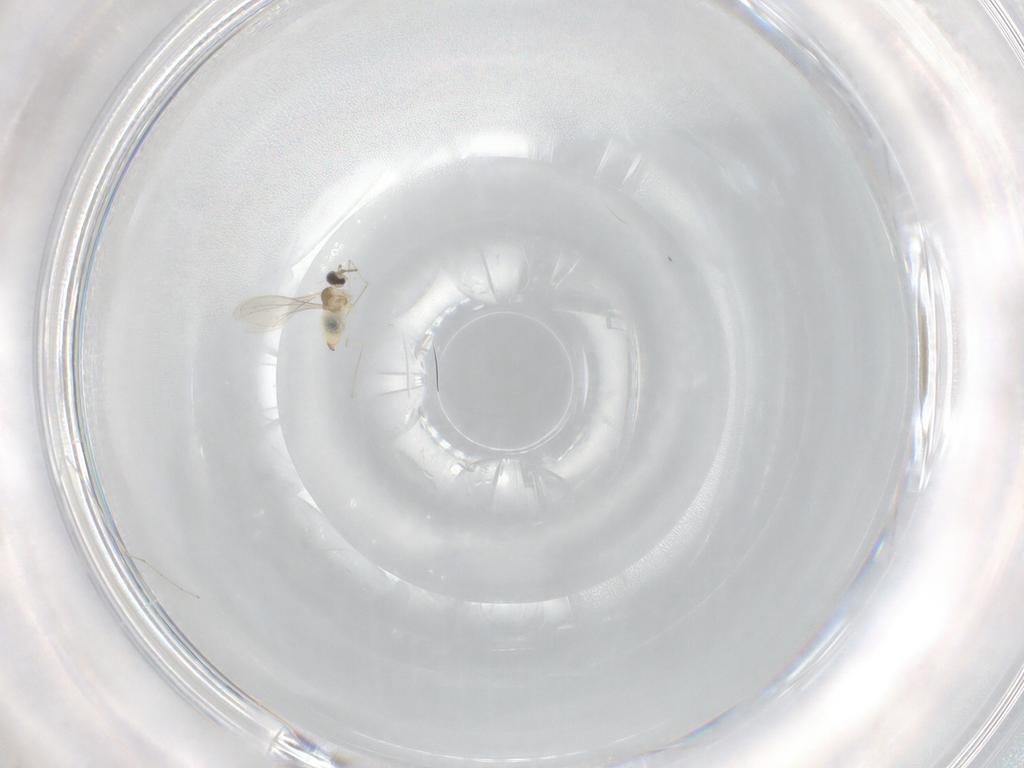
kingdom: Animalia
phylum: Arthropoda
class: Insecta
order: Diptera
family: Cecidomyiidae
